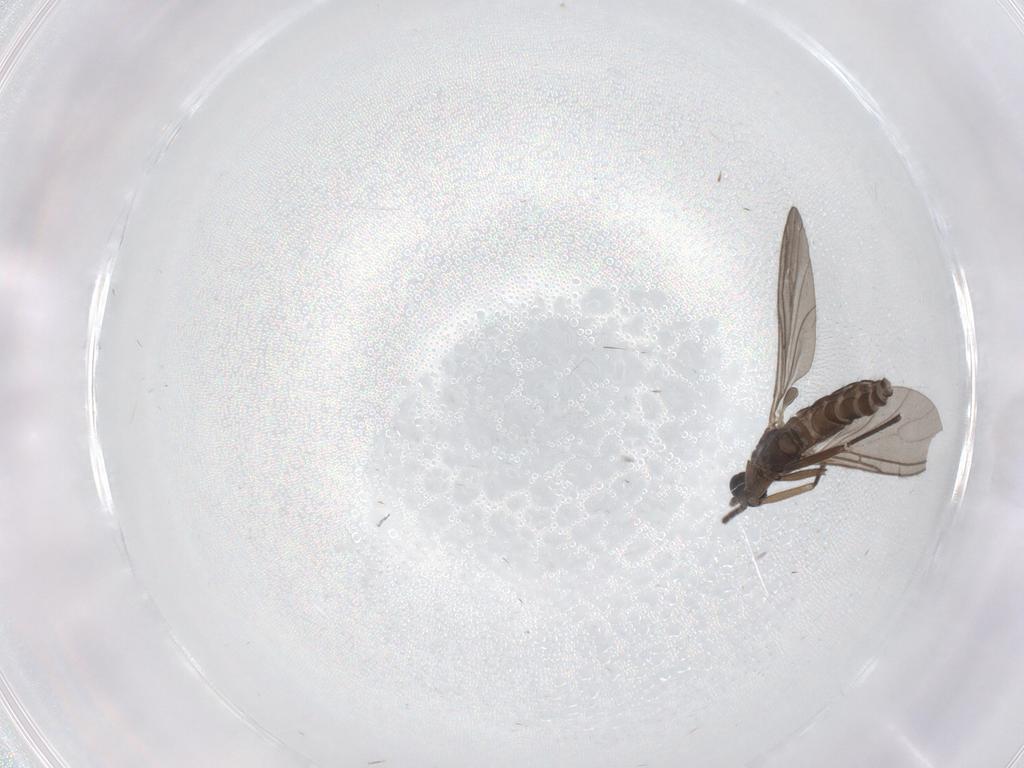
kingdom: Animalia
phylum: Arthropoda
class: Insecta
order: Diptera
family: Sciaridae
